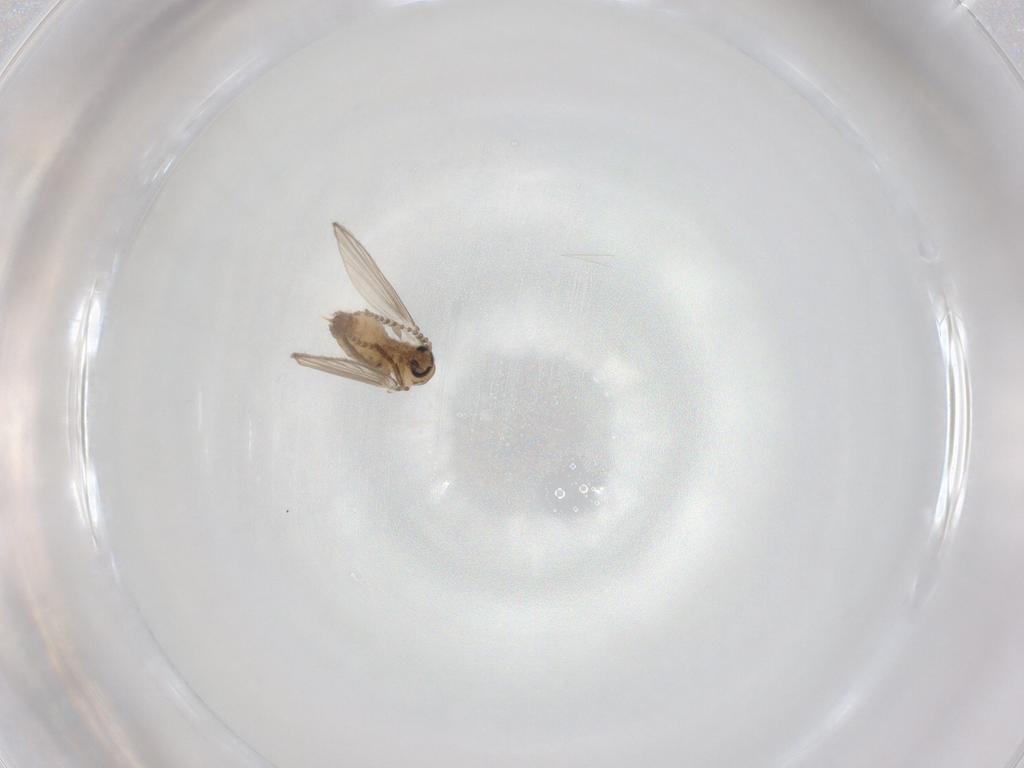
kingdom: Animalia
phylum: Arthropoda
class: Insecta
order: Diptera
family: Psychodidae
